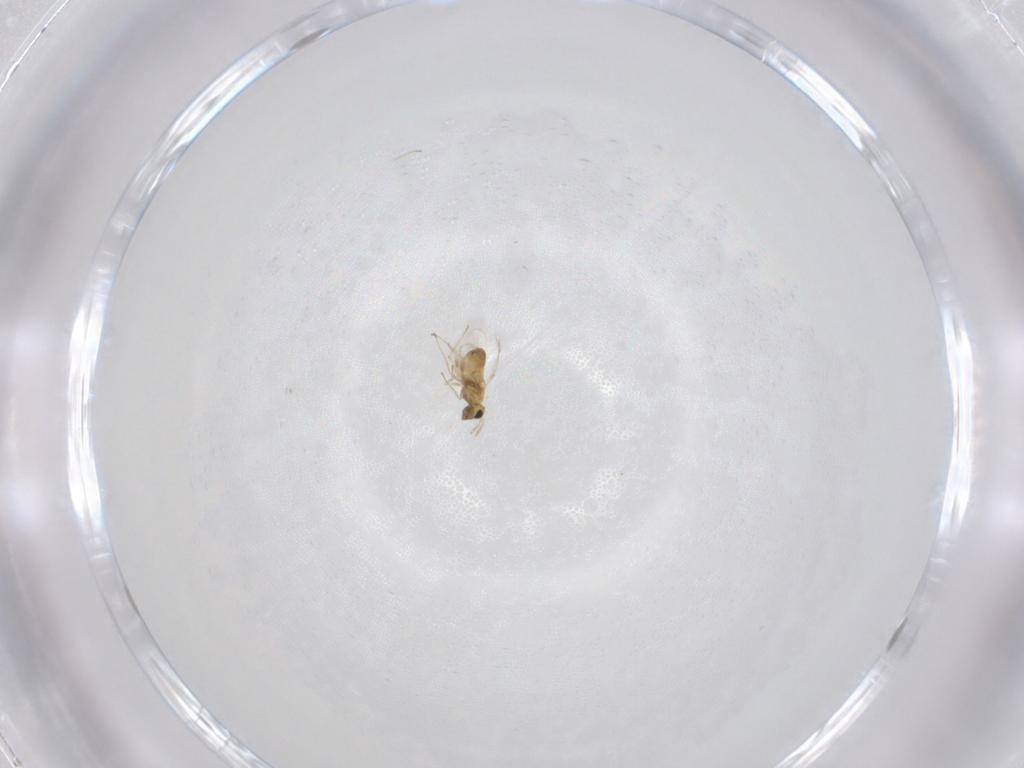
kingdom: Animalia
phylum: Arthropoda
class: Insecta
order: Hymenoptera
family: Trichogrammatidae
